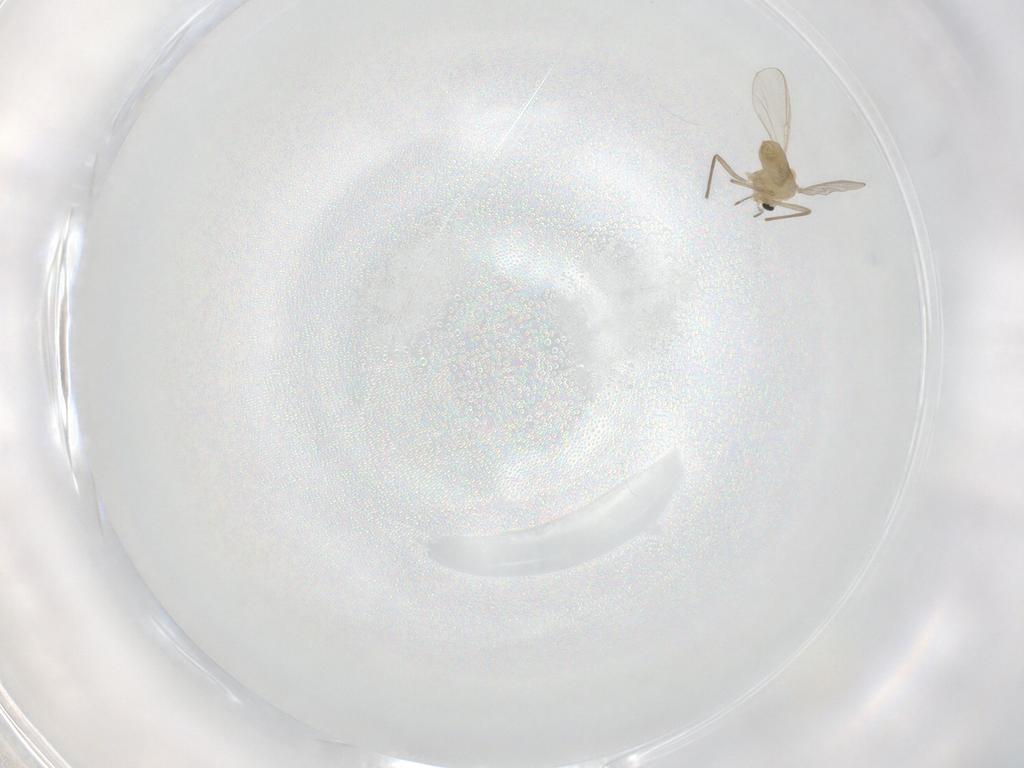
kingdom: Animalia
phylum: Arthropoda
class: Insecta
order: Diptera
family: Chironomidae
